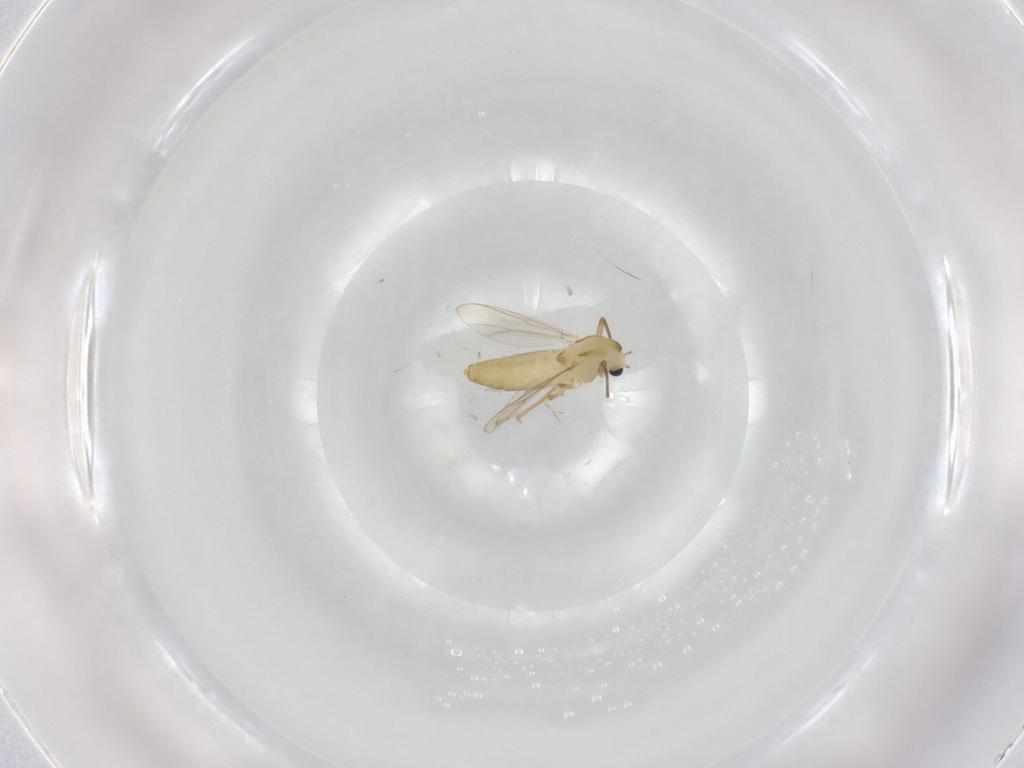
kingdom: Animalia
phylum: Arthropoda
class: Insecta
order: Diptera
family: Chironomidae
